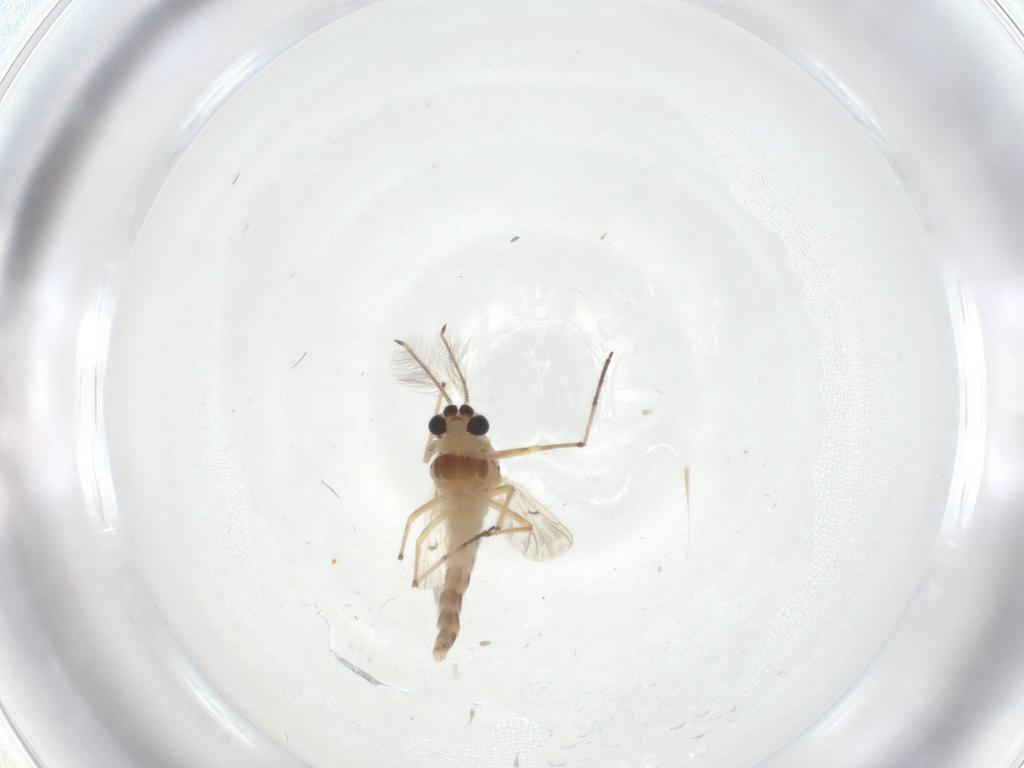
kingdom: Animalia
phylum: Arthropoda
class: Insecta
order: Diptera
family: Chironomidae
